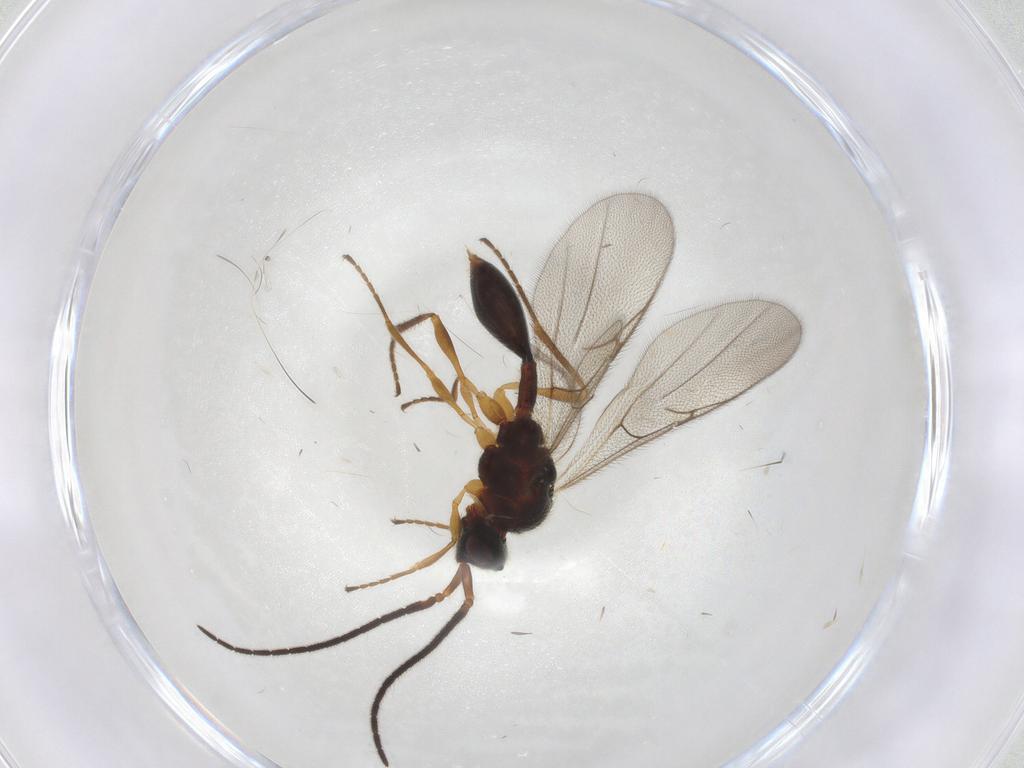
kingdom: Animalia
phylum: Arthropoda
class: Insecta
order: Hymenoptera
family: Diapriidae
